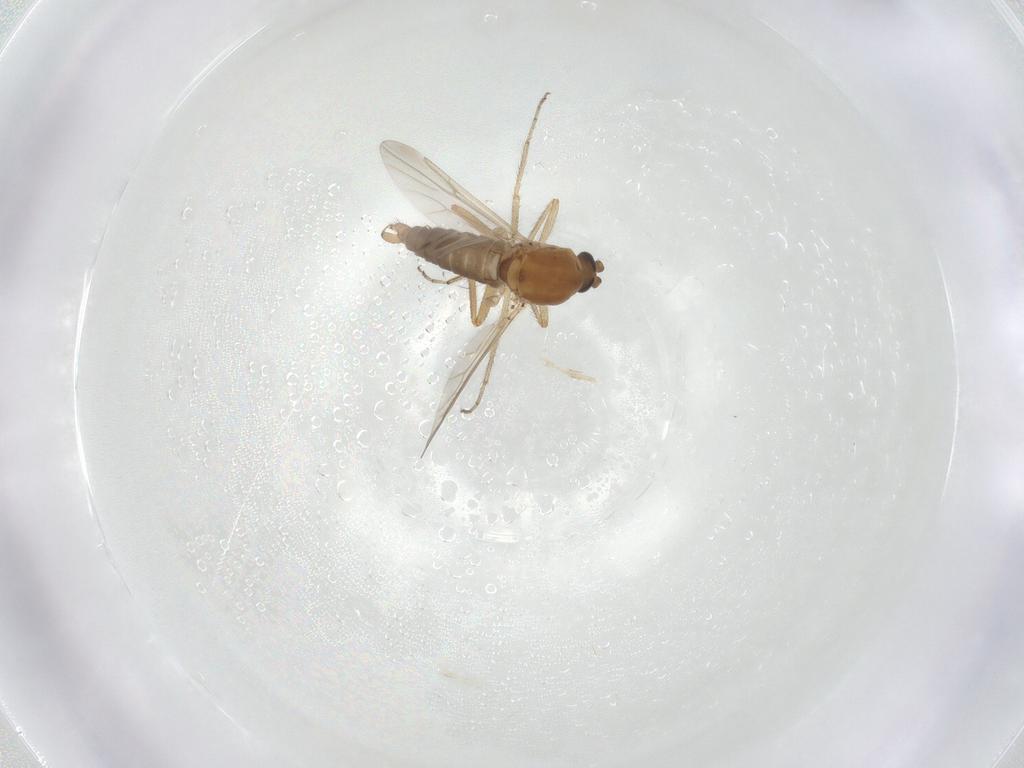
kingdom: Animalia
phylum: Arthropoda
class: Insecta
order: Diptera
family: Ceratopogonidae
